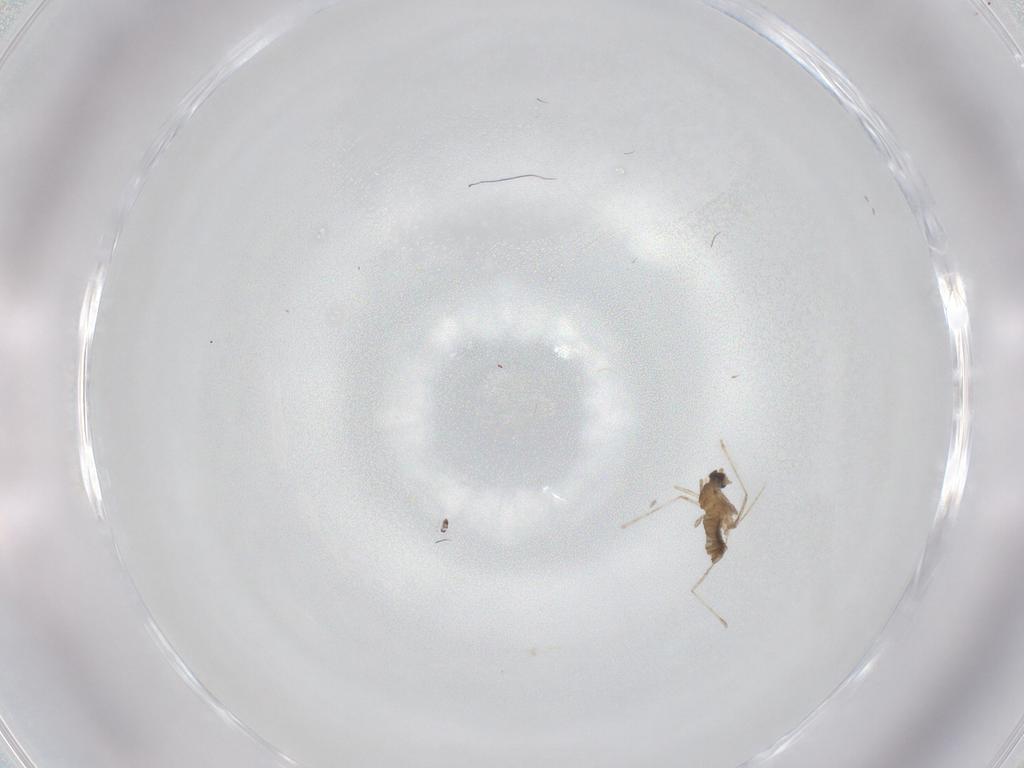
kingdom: Animalia
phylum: Arthropoda
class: Insecta
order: Diptera
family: Cecidomyiidae
